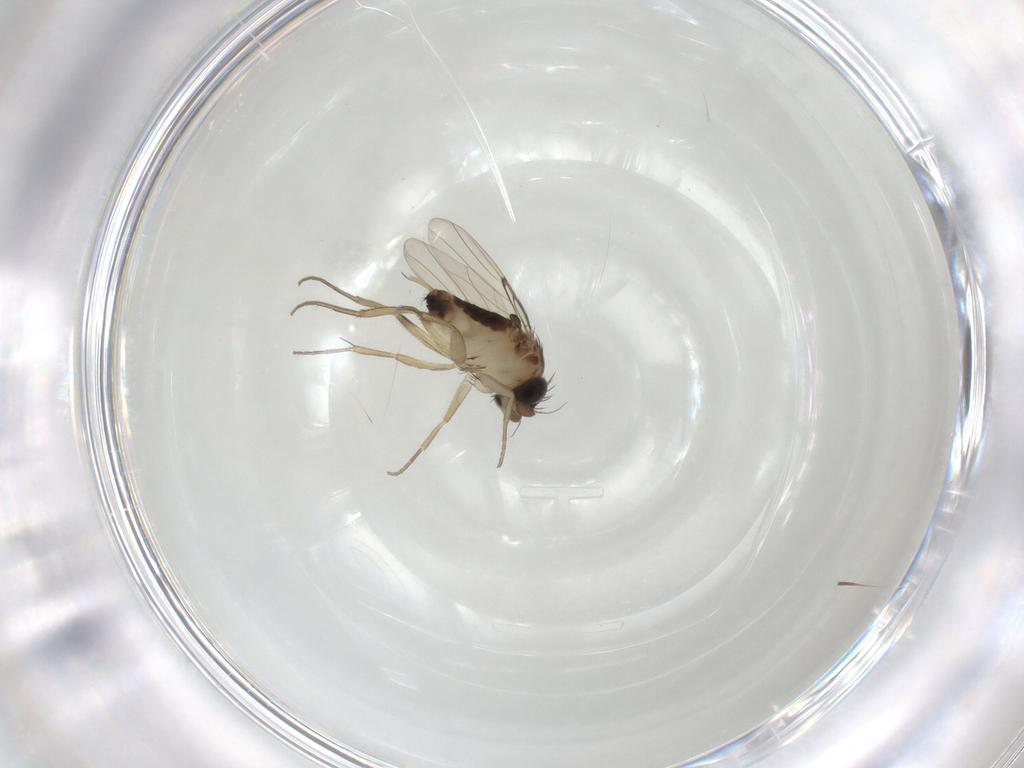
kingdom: Animalia
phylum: Arthropoda
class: Insecta
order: Diptera
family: Phoridae
